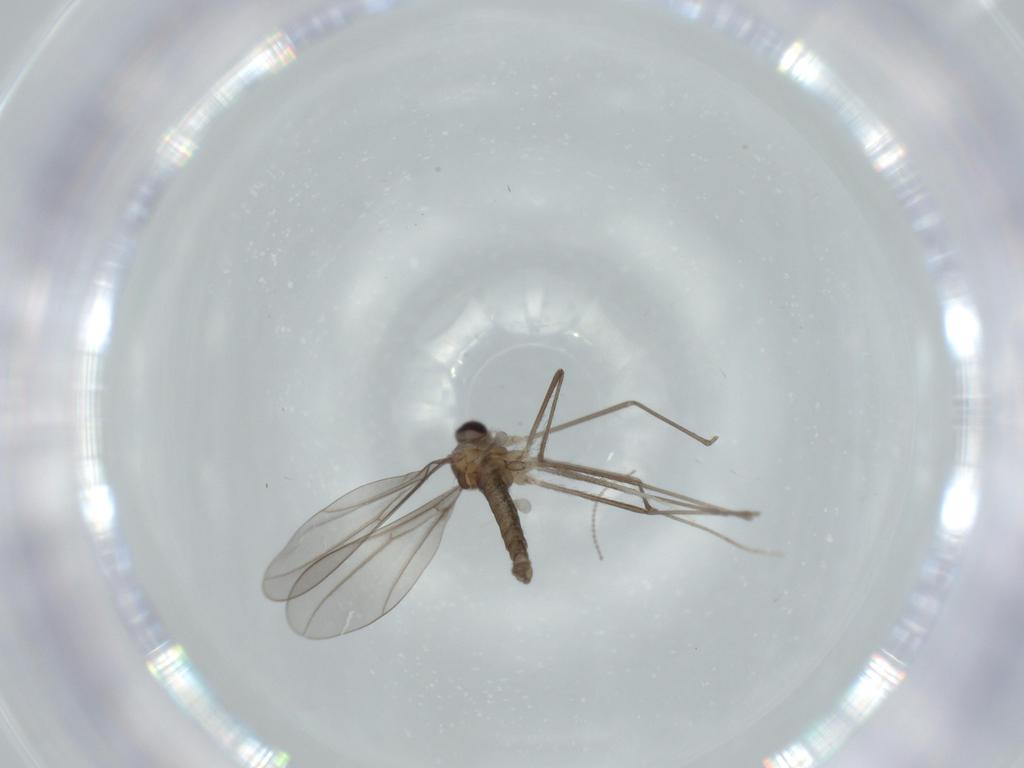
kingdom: Animalia
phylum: Arthropoda
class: Insecta
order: Diptera
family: Cecidomyiidae
